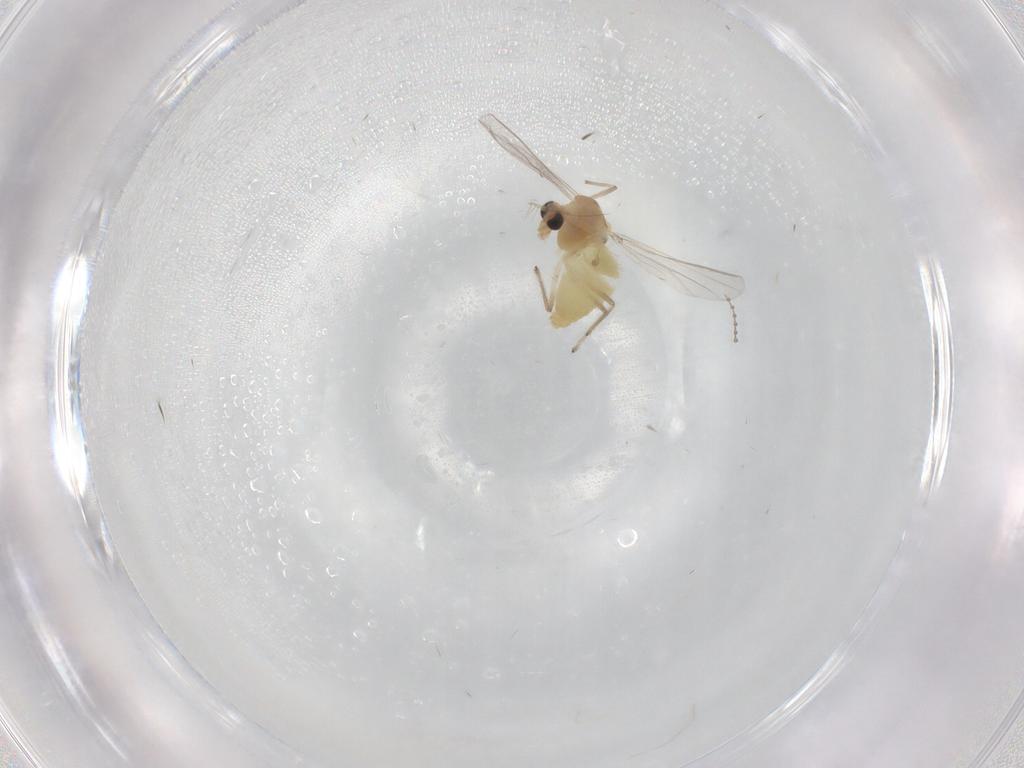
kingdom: Animalia
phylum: Arthropoda
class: Insecta
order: Diptera
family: Chironomidae
